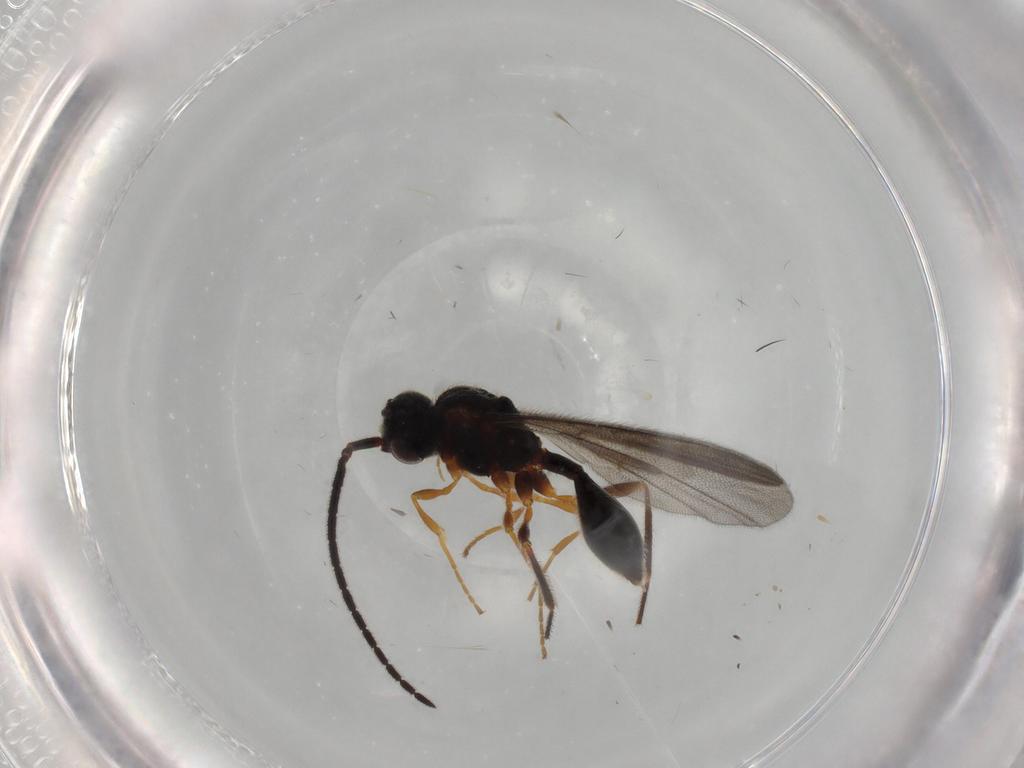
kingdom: Animalia
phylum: Arthropoda
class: Insecta
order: Hymenoptera
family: Diapriidae
